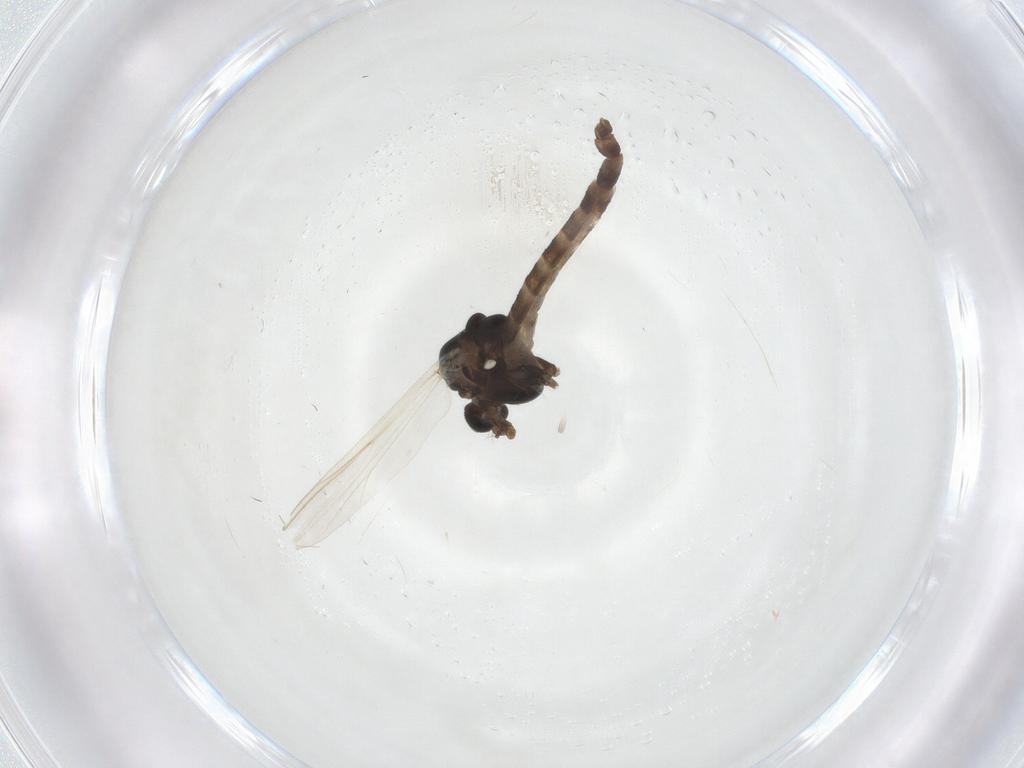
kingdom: Animalia
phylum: Arthropoda
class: Insecta
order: Diptera
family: Chironomidae
